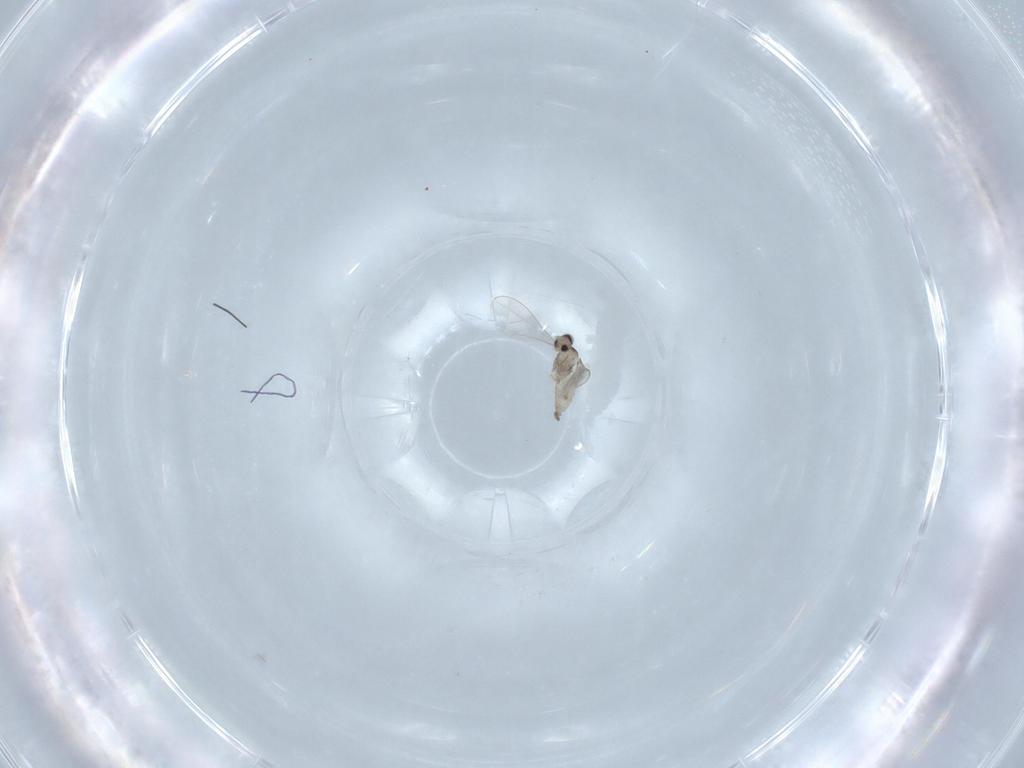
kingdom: Animalia
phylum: Arthropoda
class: Insecta
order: Diptera
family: Cecidomyiidae
